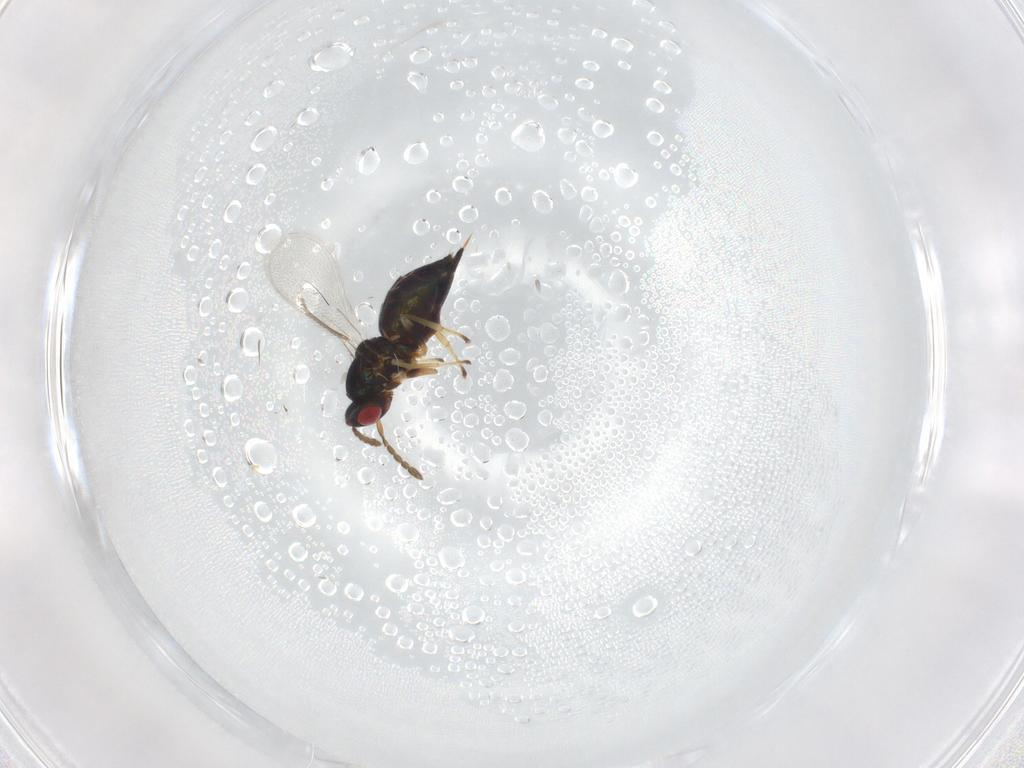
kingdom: Animalia
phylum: Arthropoda
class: Insecta
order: Hymenoptera
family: Eulophidae
